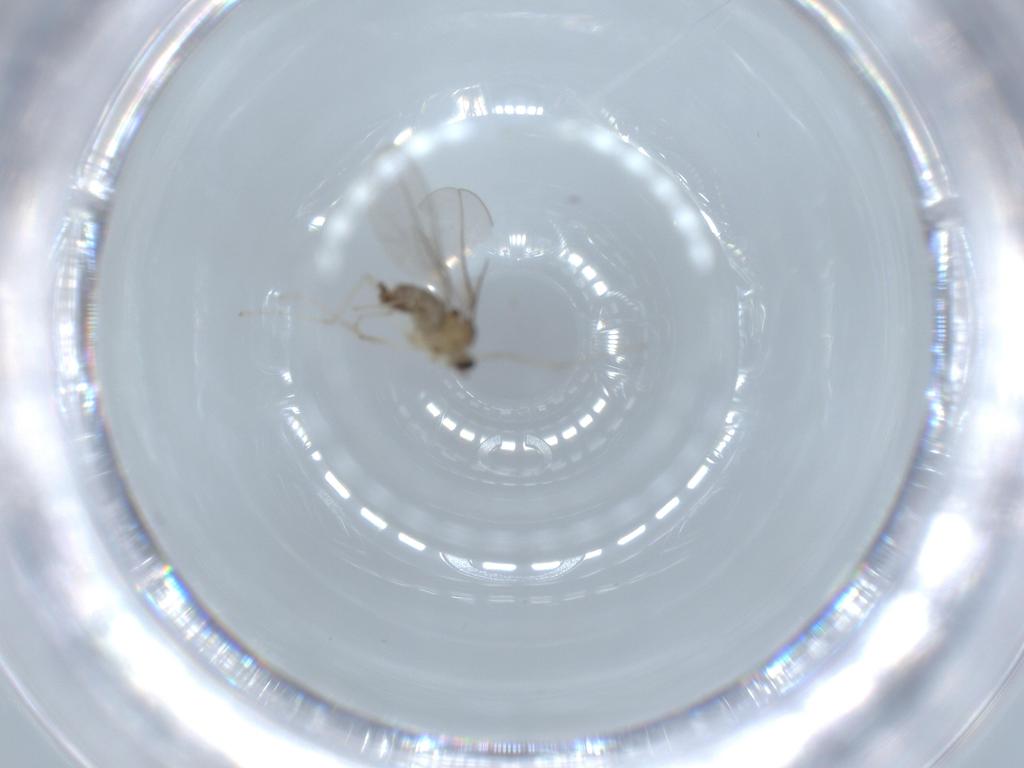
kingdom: Animalia
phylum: Arthropoda
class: Insecta
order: Diptera
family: Cecidomyiidae
